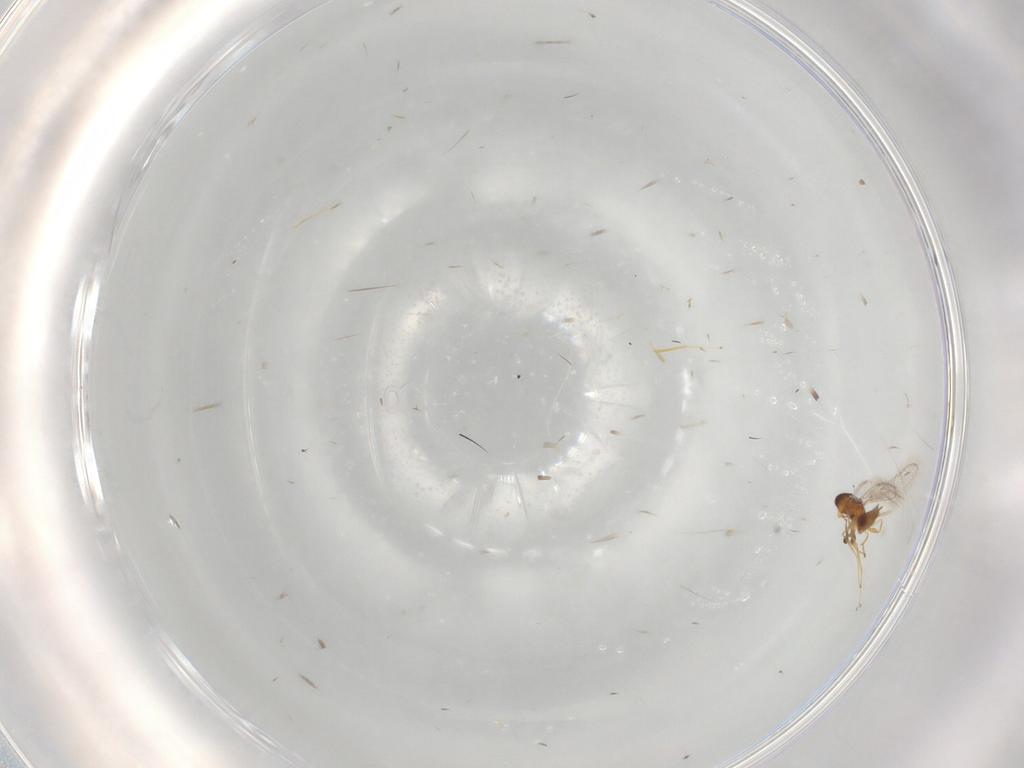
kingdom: Animalia
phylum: Arthropoda
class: Insecta
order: Hymenoptera
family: Mymaridae
